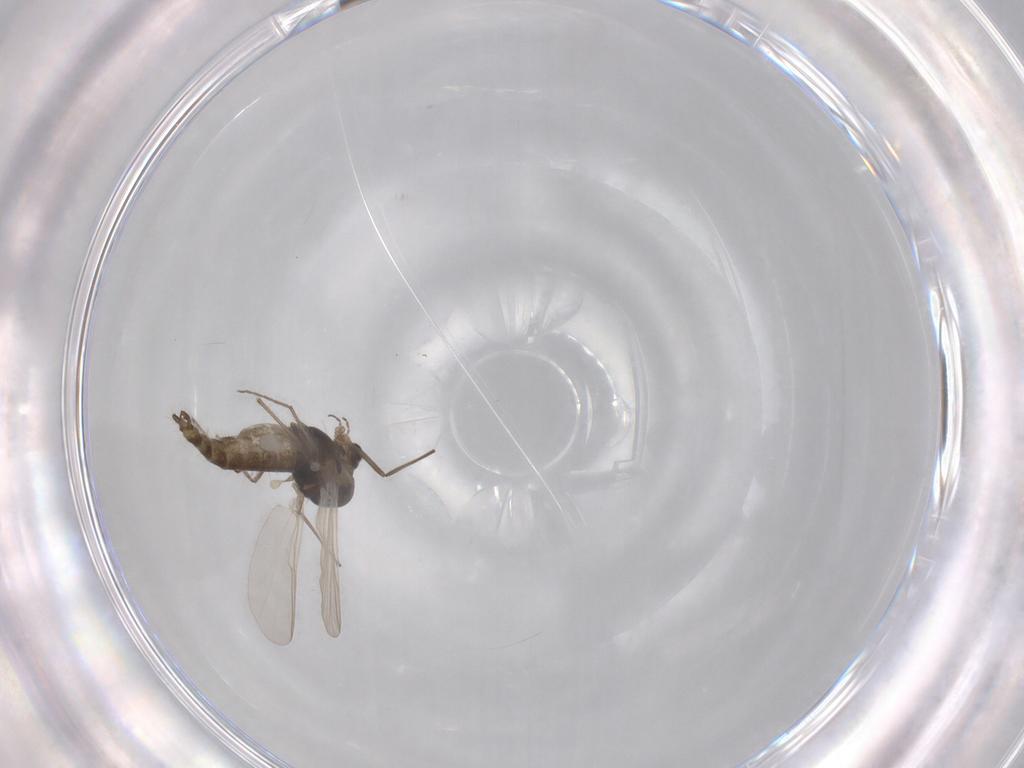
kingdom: Animalia
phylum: Arthropoda
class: Insecta
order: Diptera
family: Chironomidae
